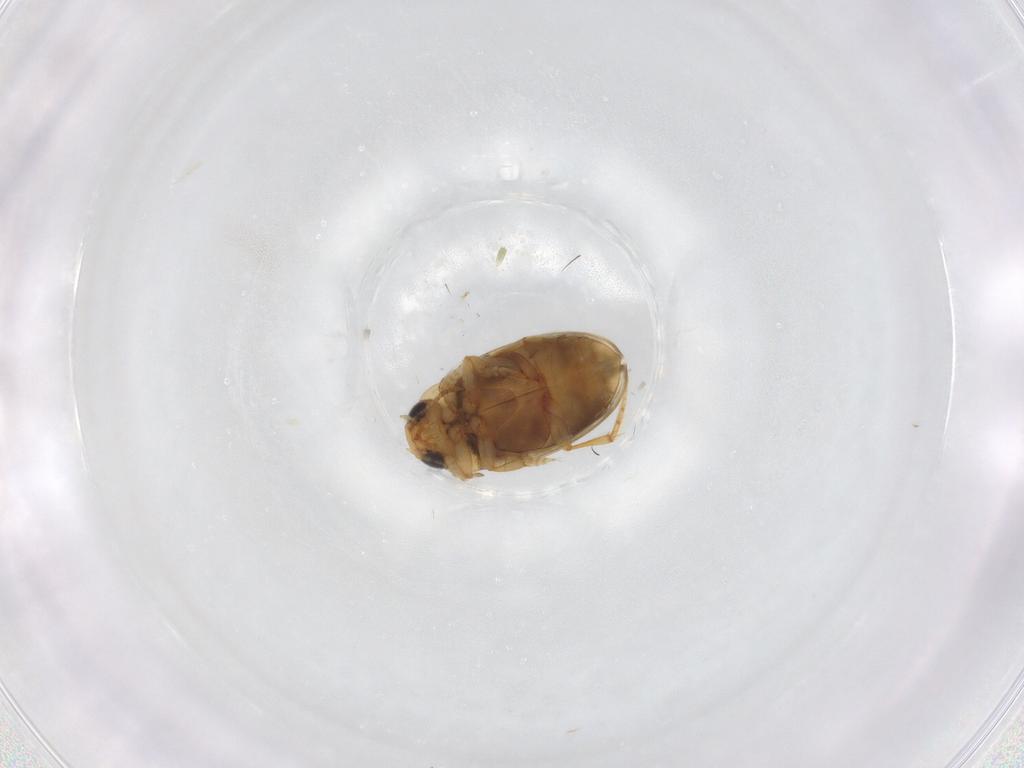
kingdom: Animalia
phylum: Arthropoda
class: Insecta
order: Coleoptera
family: Dytiscidae
